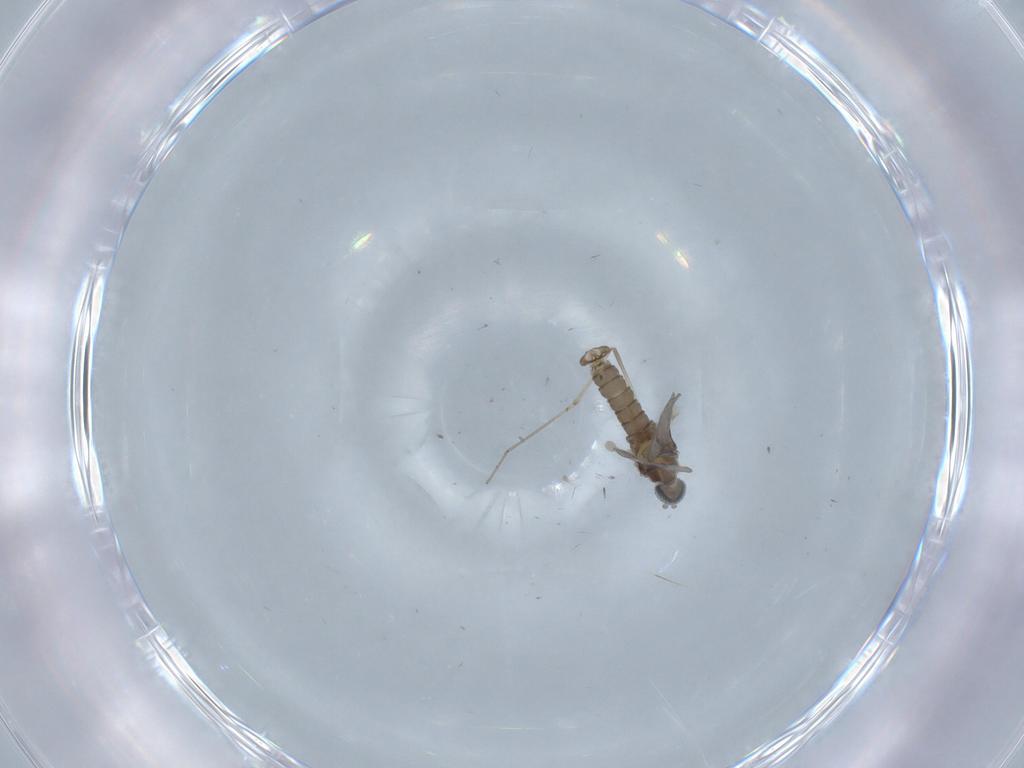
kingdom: Animalia
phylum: Arthropoda
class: Insecta
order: Diptera
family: Cecidomyiidae
